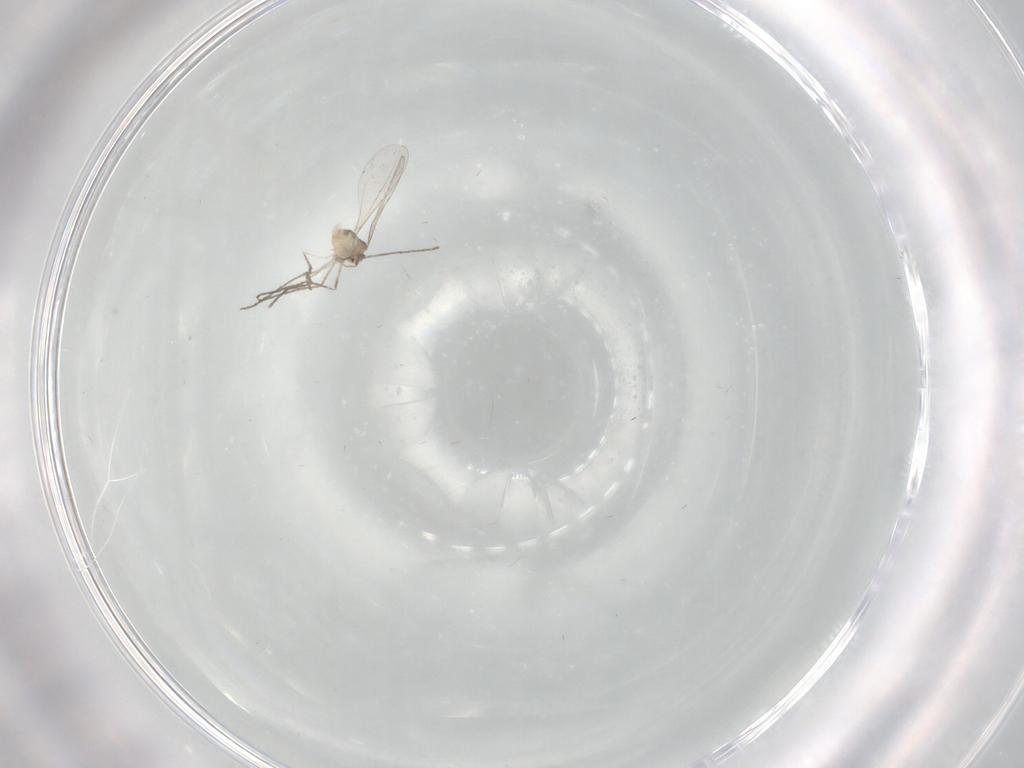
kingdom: Animalia
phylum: Arthropoda
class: Insecta
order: Diptera
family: Cecidomyiidae
